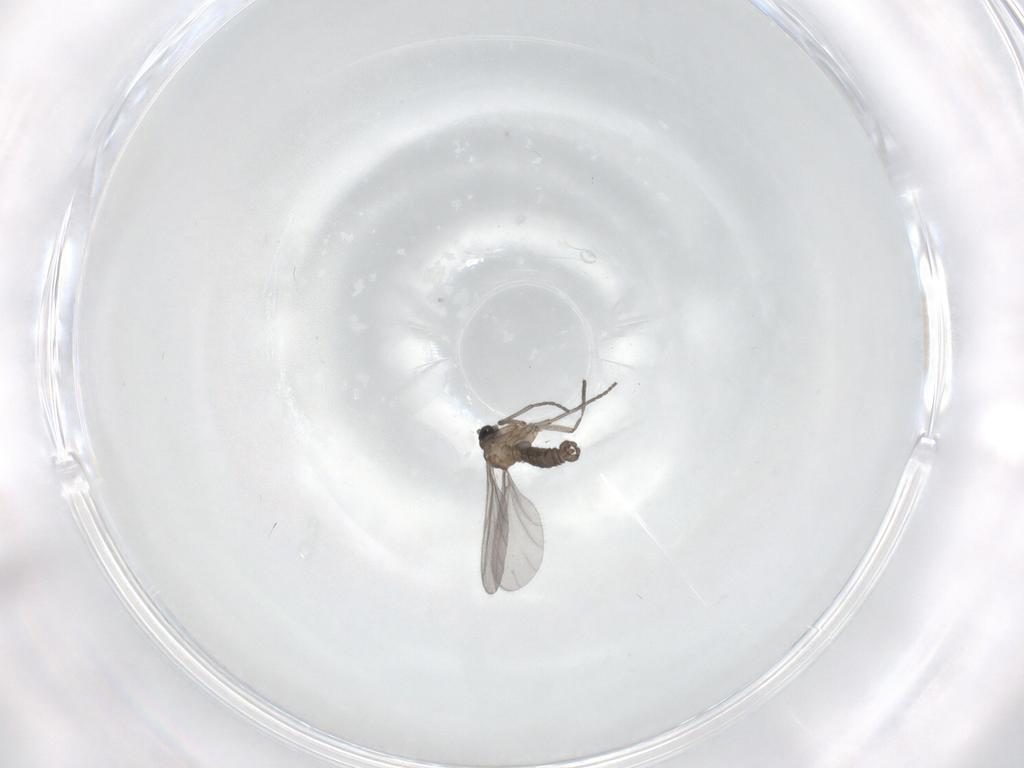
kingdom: Animalia
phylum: Arthropoda
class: Insecta
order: Diptera
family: Sciaridae
